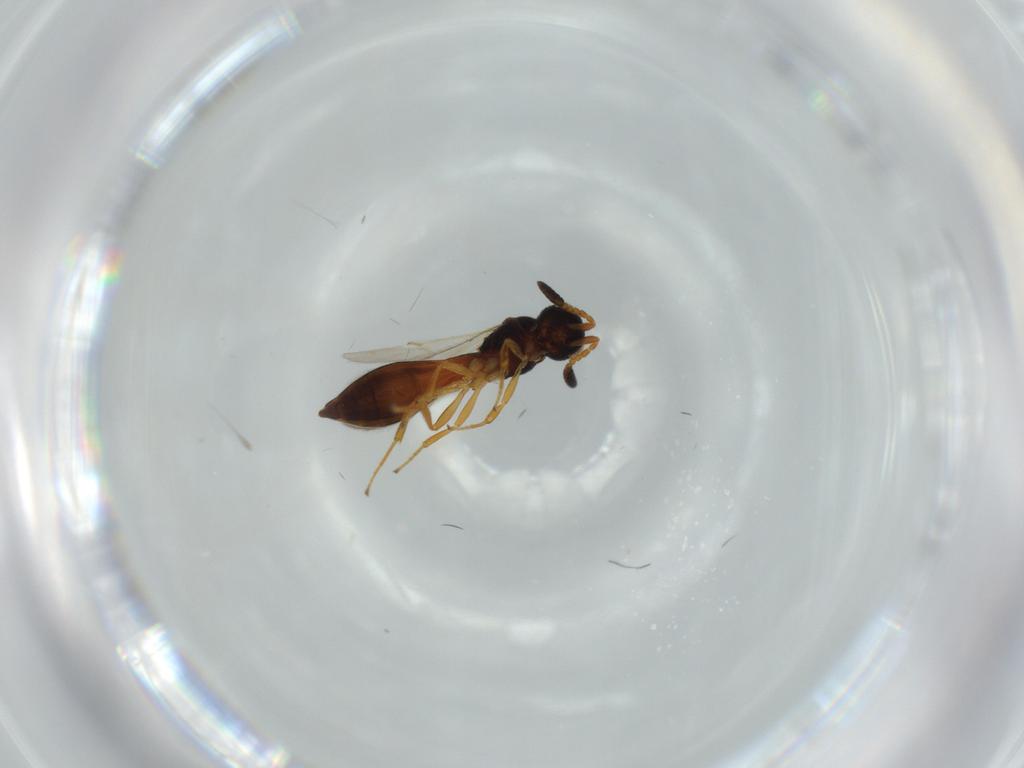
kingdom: Animalia
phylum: Arthropoda
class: Insecta
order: Hymenoptera
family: Scelionidae
